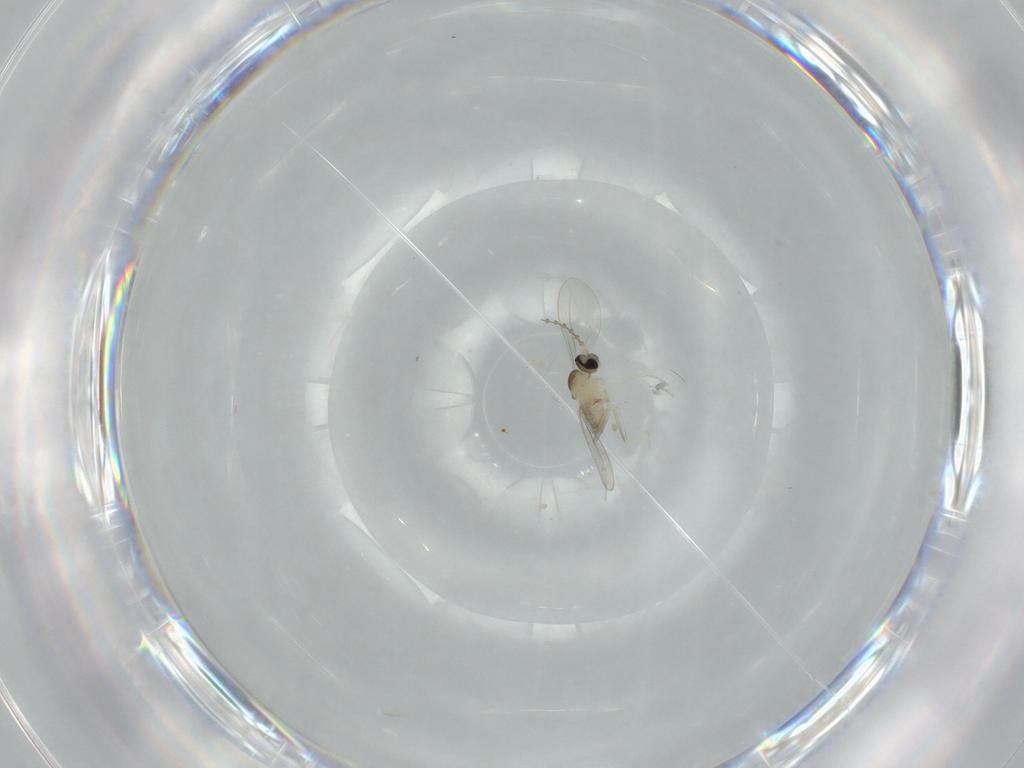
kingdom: Animalia
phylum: Arthropoda
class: Insecta
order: Diptera
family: Cecidomyiidae
